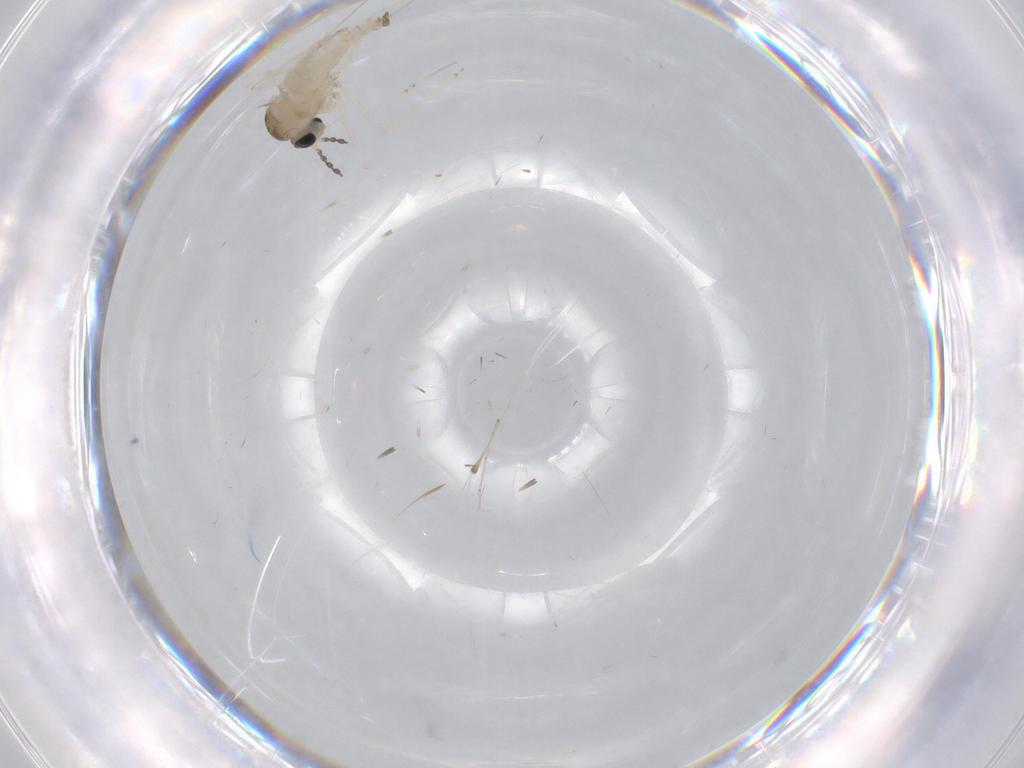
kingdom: Animalia
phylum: Arthropoda
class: Insecta
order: Diptera
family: Cecidomyiidae
